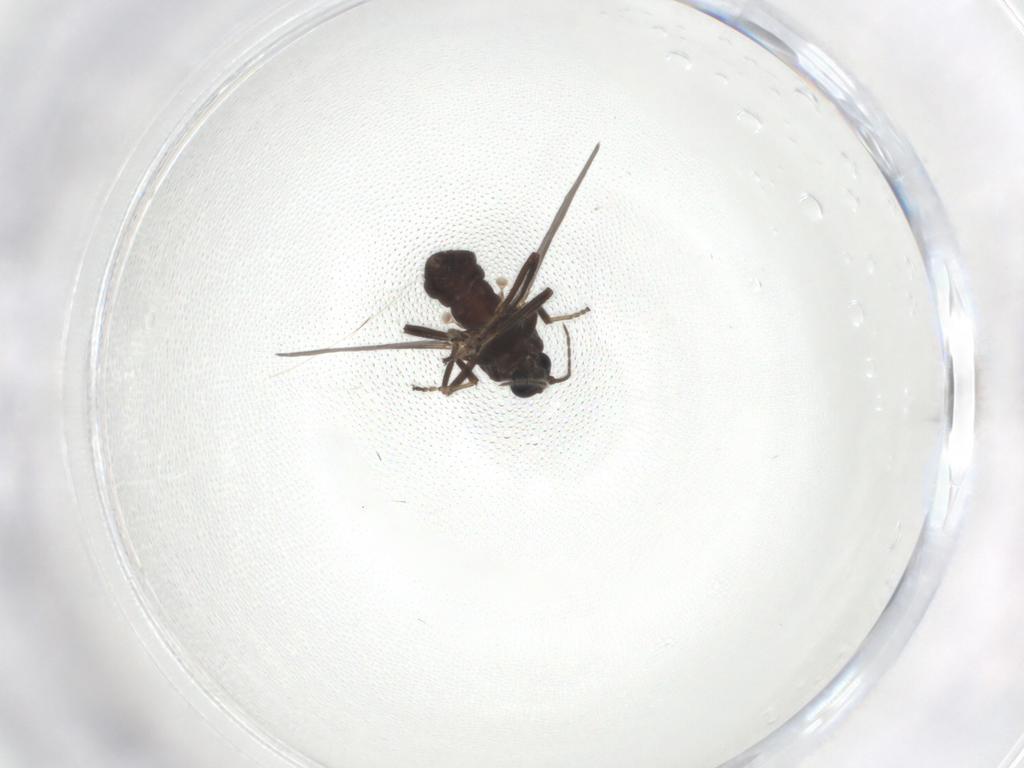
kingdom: Animalia
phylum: Arthropoda
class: Insecta
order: Diptera
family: Ceratopogonidae
